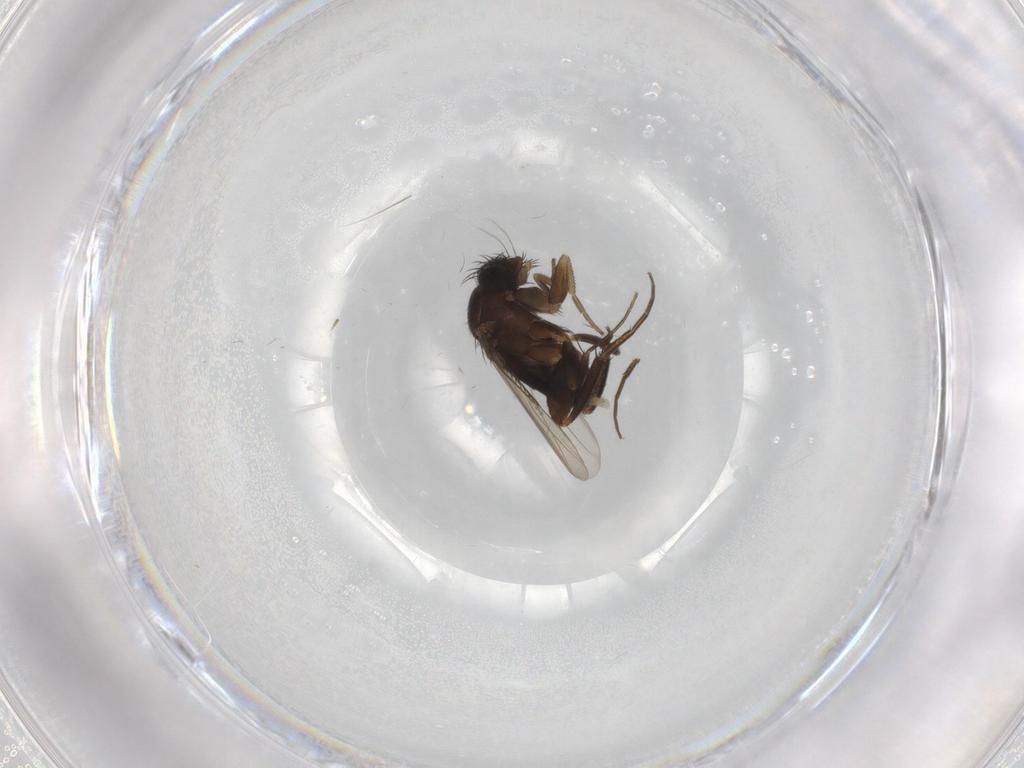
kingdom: Animalia
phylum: Arthropoda
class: Insecta
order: Diptera
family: Phoridae
